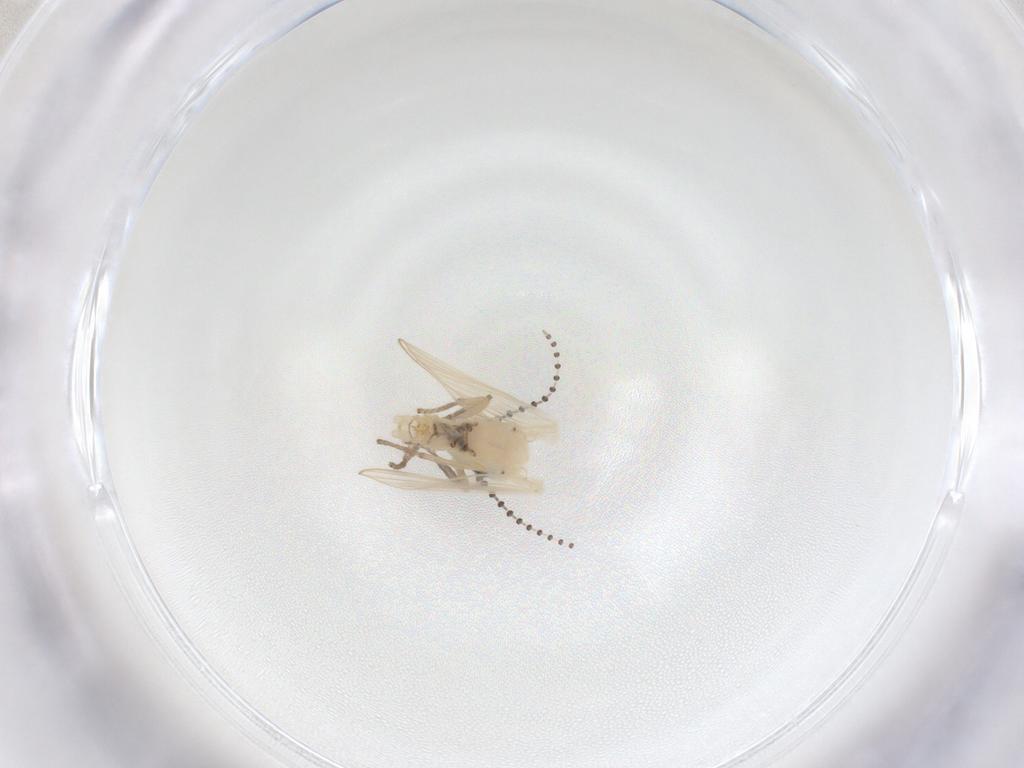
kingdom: Animalia
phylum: Arthropoda
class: Insecta
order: Diptera
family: Psychodidae
